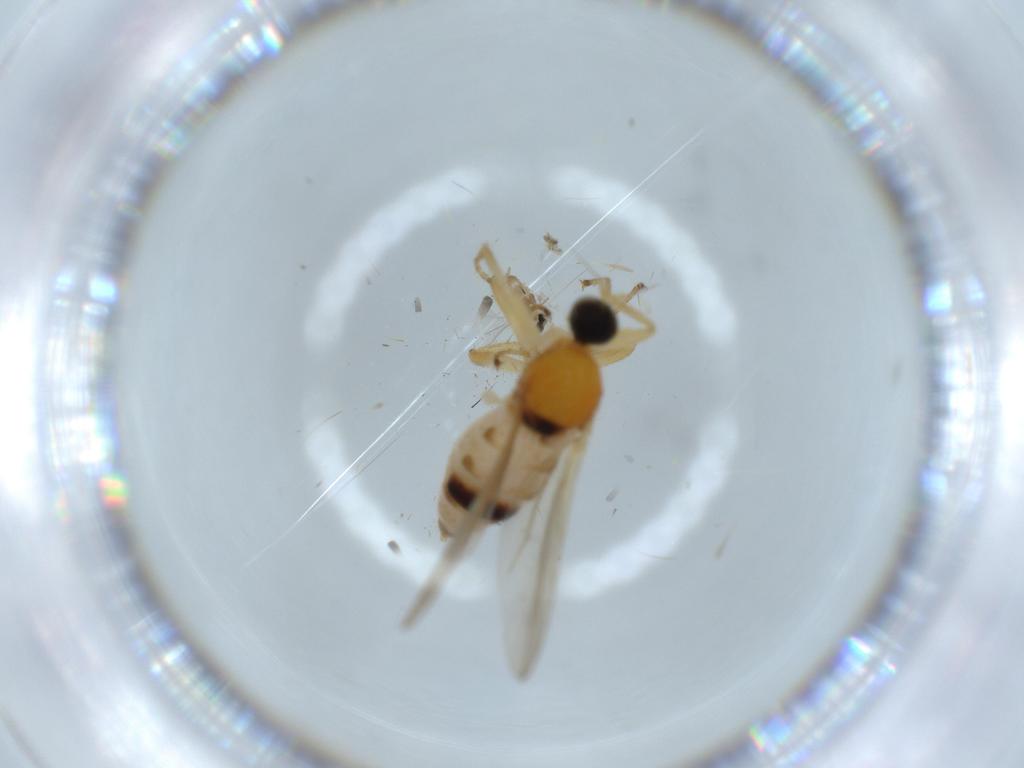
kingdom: Animalia
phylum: Arthropoda
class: Insecta
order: Diptera
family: Hybotidae
